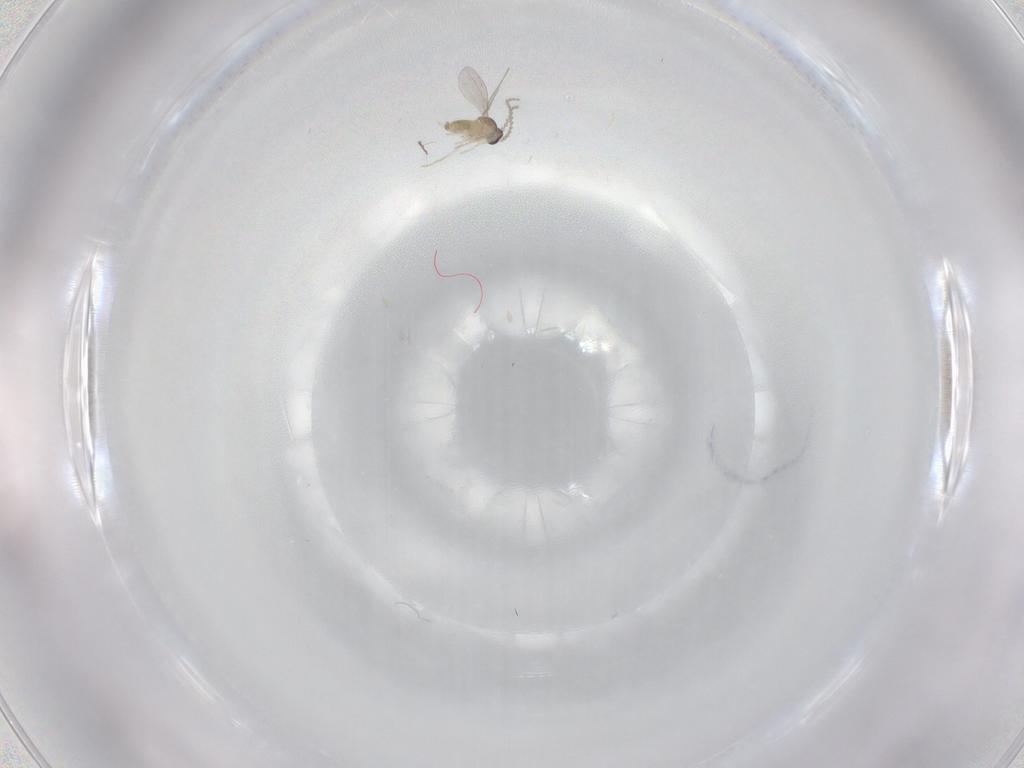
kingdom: Animalia
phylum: Arthropoda
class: Insecta
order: Diptera
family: Cecidomyiidae
